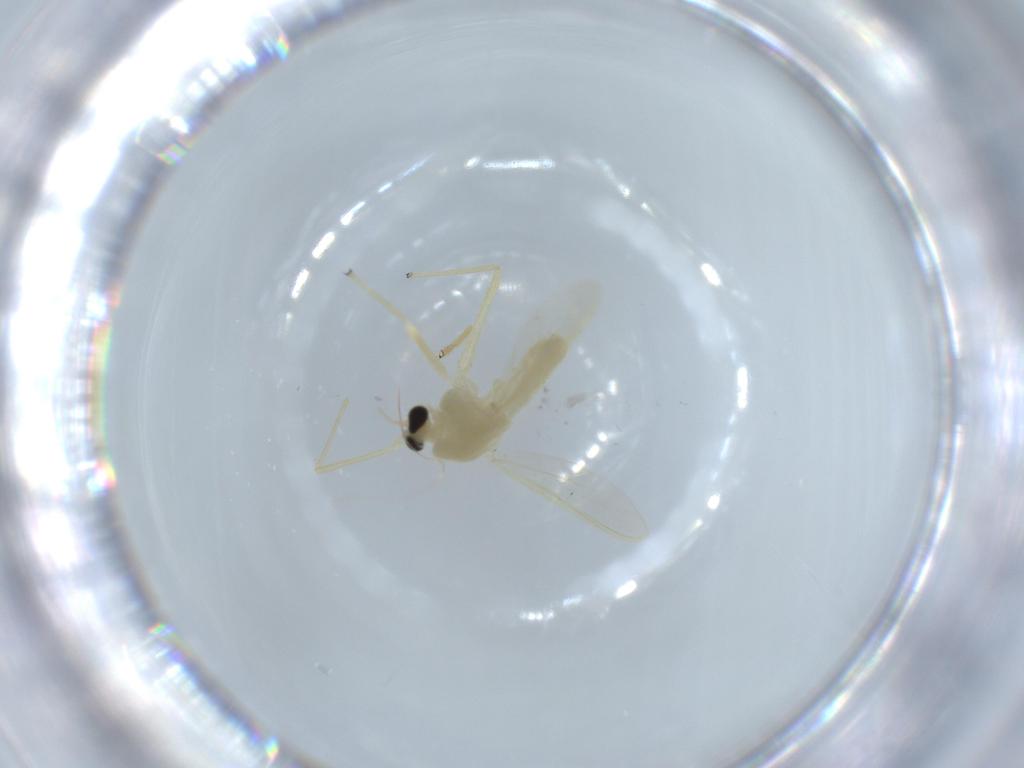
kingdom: Animalia
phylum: Arthropoda
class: Insecta
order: Diptera
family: Chironomidae
